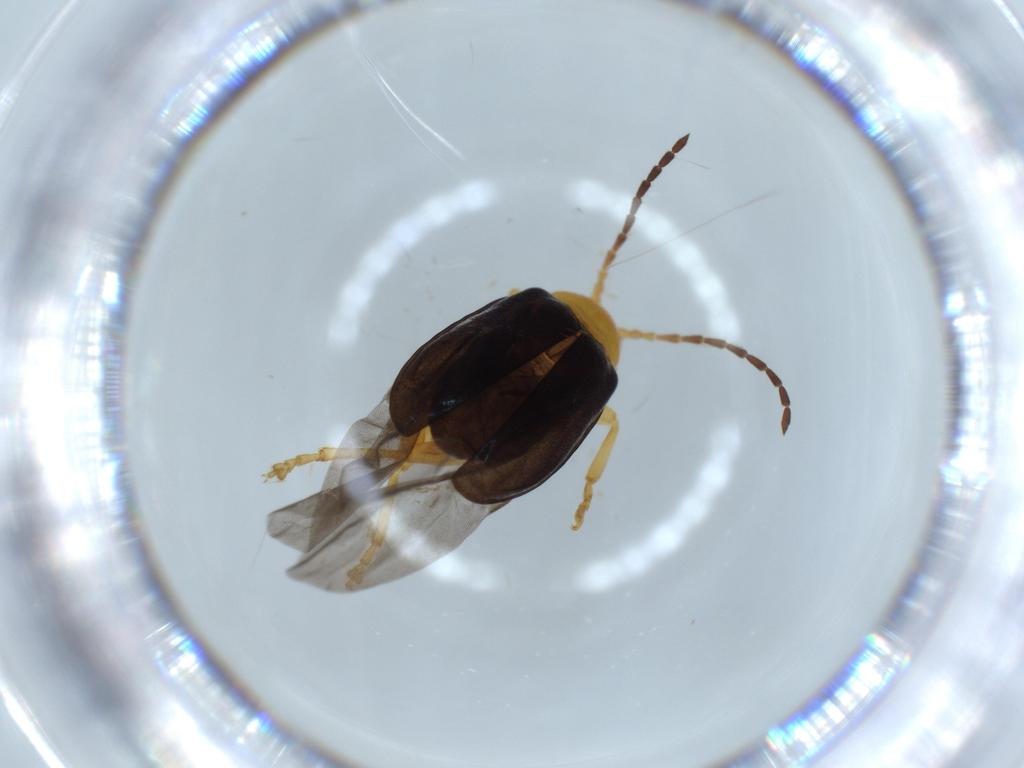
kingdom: Animalia
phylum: Arthropoda
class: Insecta
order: Coleoptera
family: Chrysomelidae
